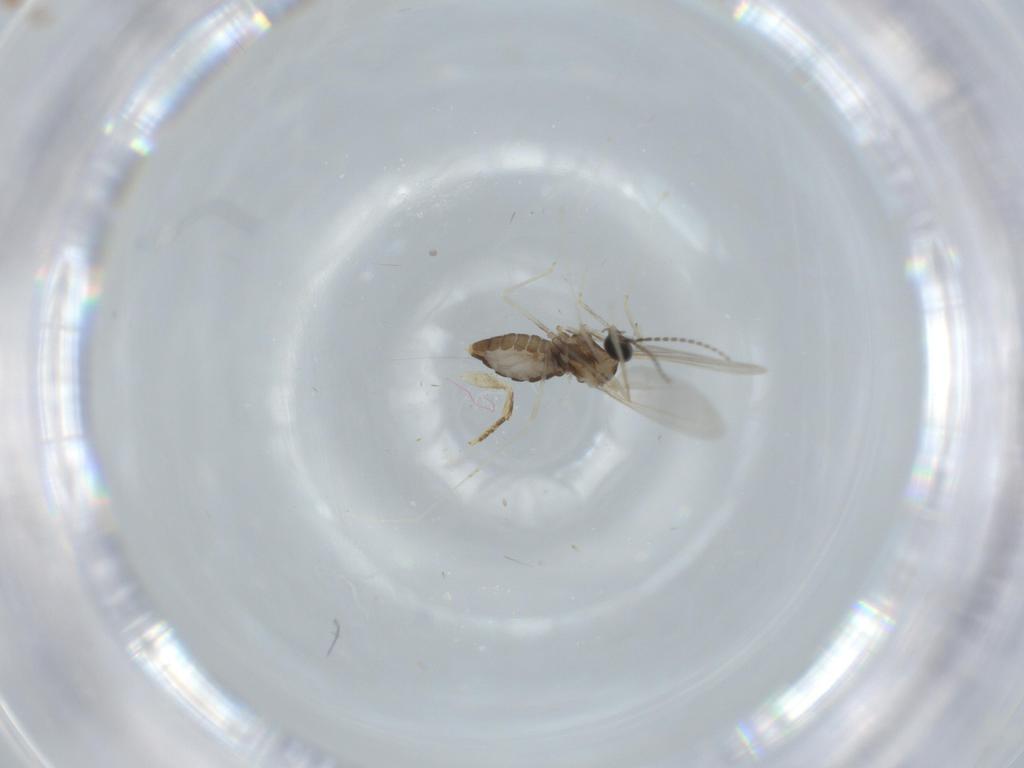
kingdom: Animalia
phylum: Arthropoda
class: Insecta
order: Diptera
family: Cecidomyiidae
